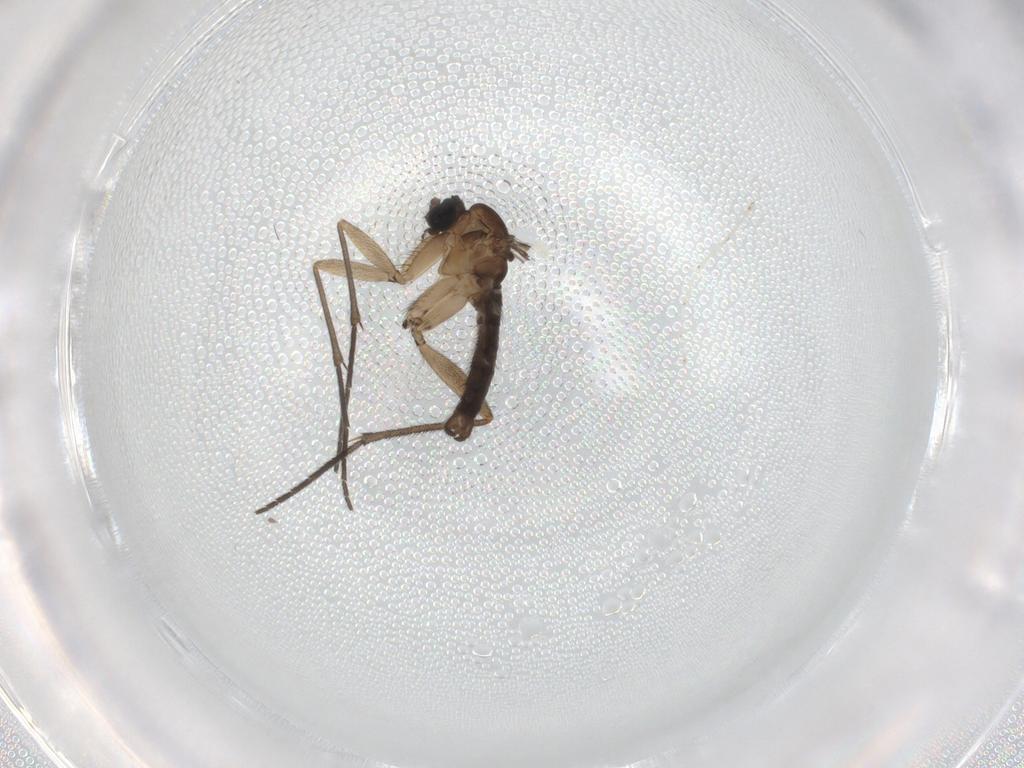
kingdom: Animalia
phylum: Arthropoda
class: Insecta
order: Diptera
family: Cecidomyiidae
